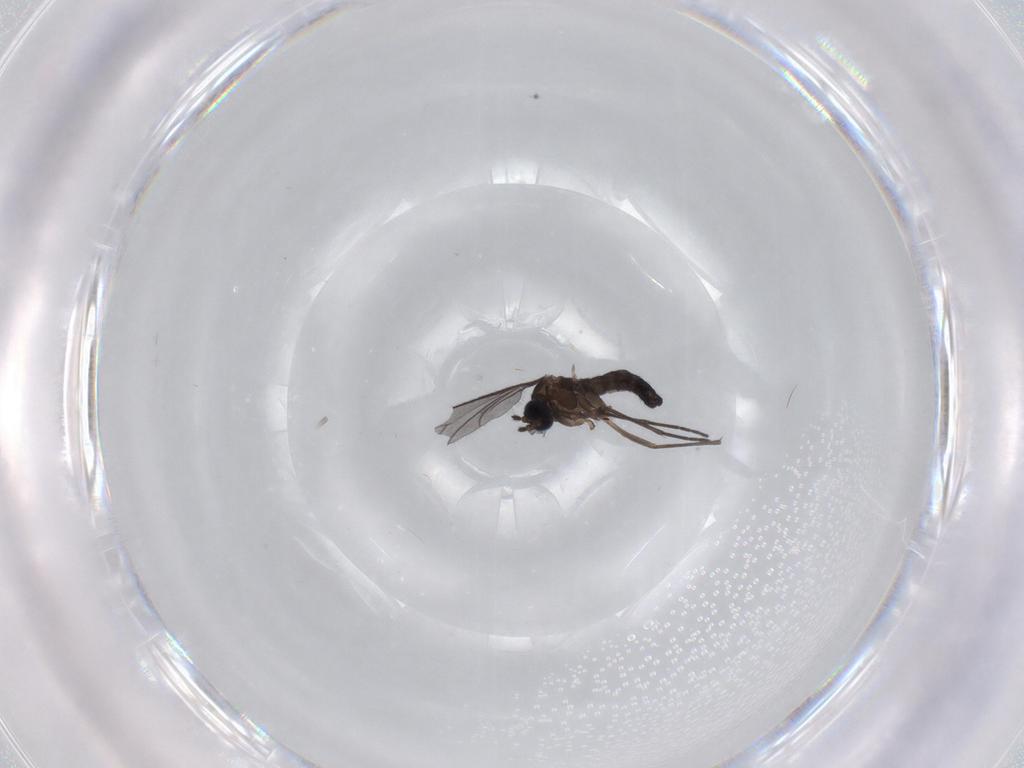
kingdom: Animalia
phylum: Arthropoda
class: Insecta
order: Diptera
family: Sciaridae
